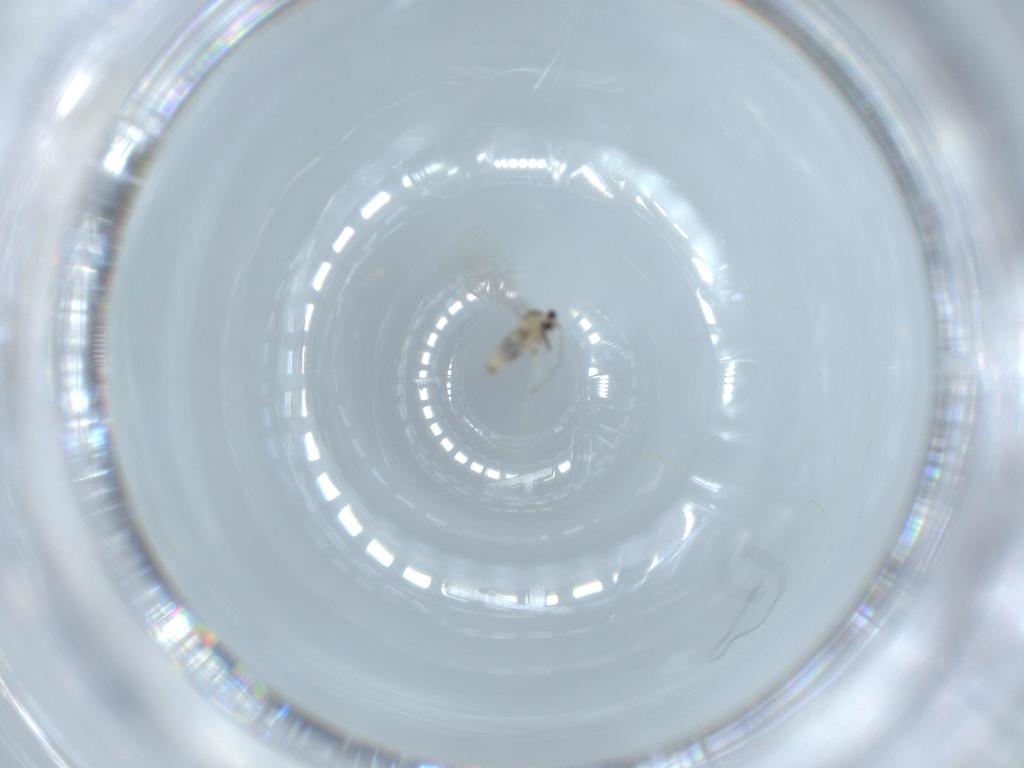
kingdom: Animalia
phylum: Arthropoda
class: Insecta
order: Diptera
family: Cecidomyiidae
